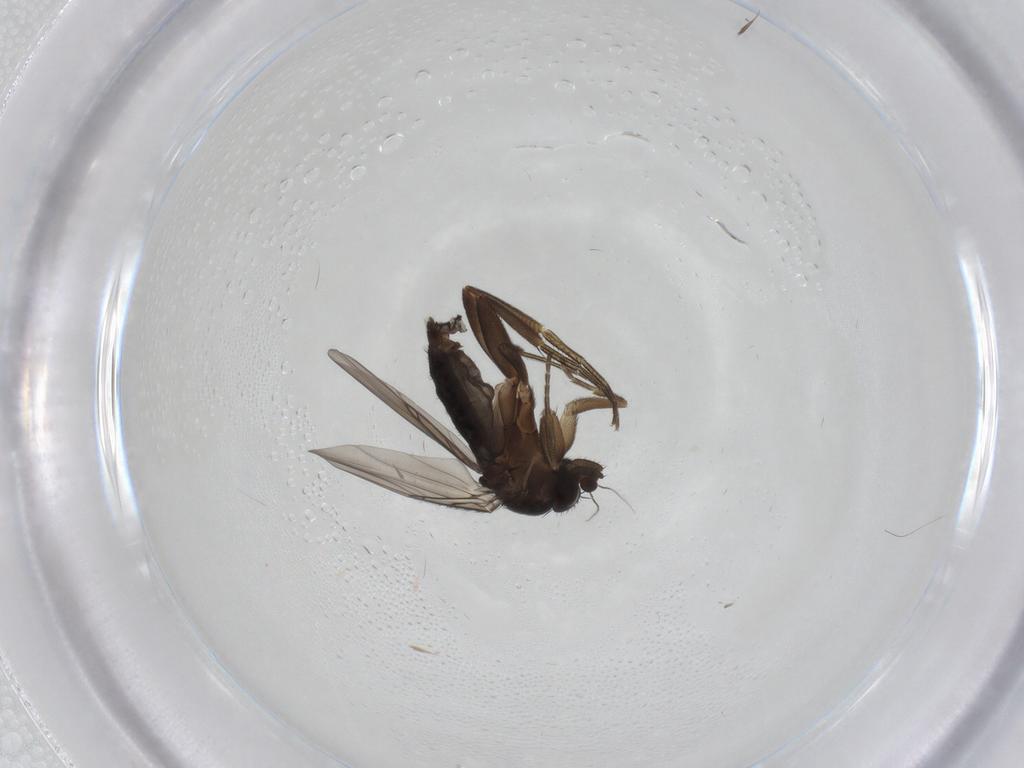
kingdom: Animalia
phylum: Arthropoda
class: Insecta
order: Diptera
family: Phoridae
